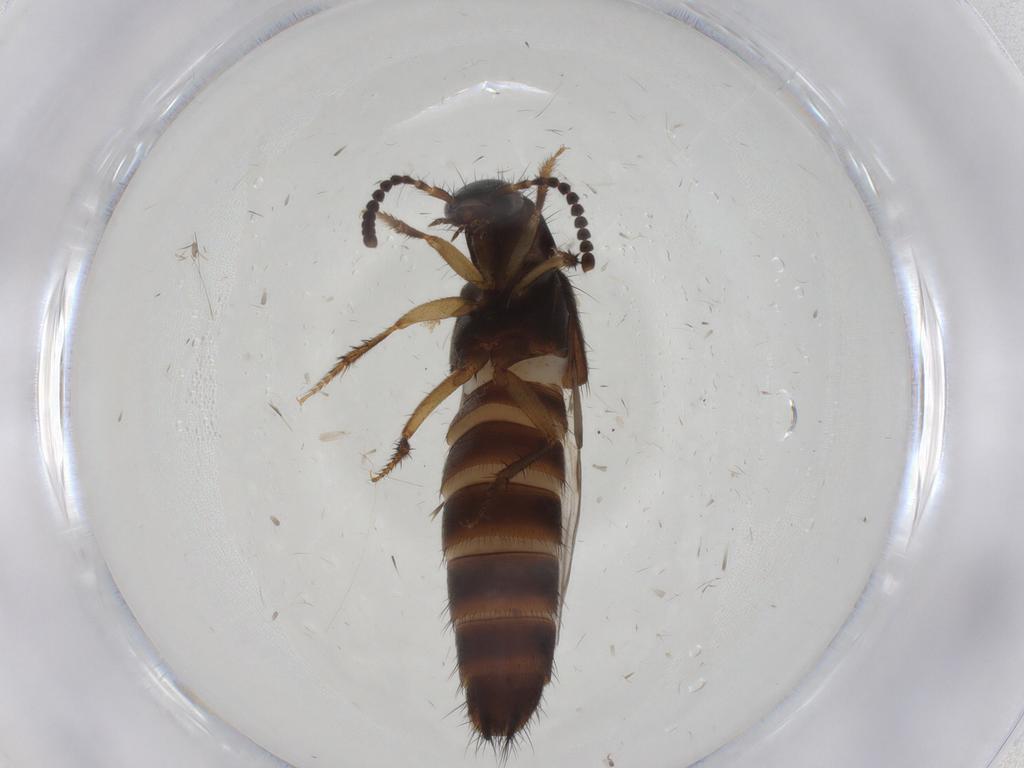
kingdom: Animalia
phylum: Arthropoda
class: Insecta
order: Coleoptera
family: Staphylinidae
